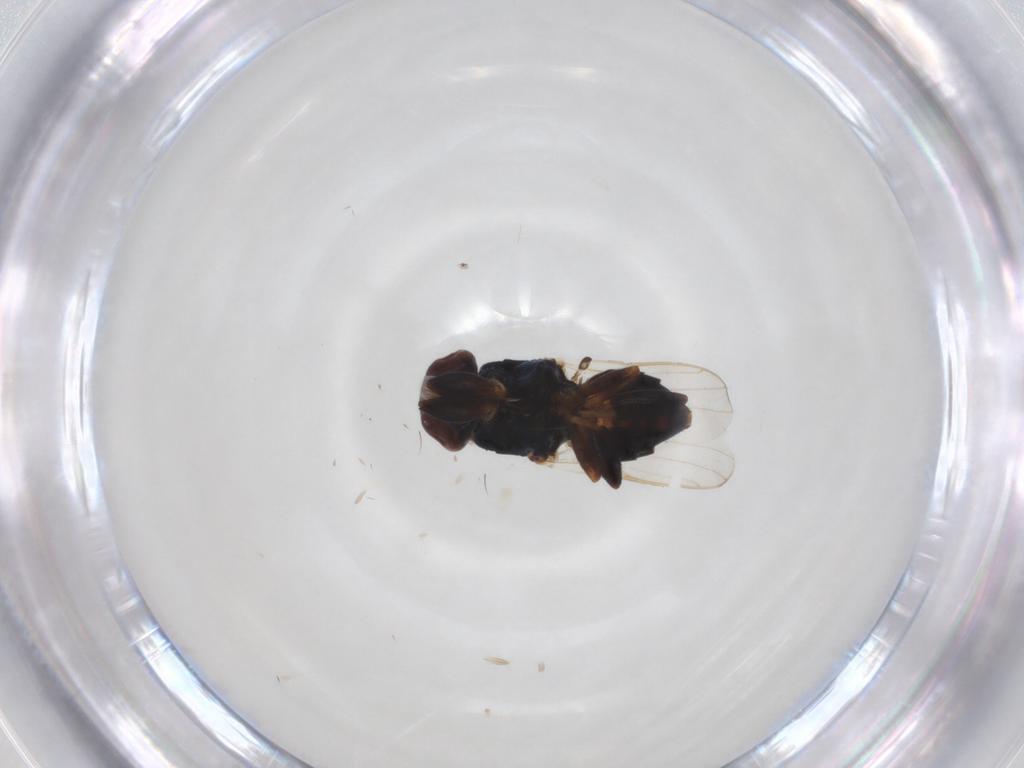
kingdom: Animalia
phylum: Arthropoda
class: Insecta
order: Diptera
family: Chloropidae
